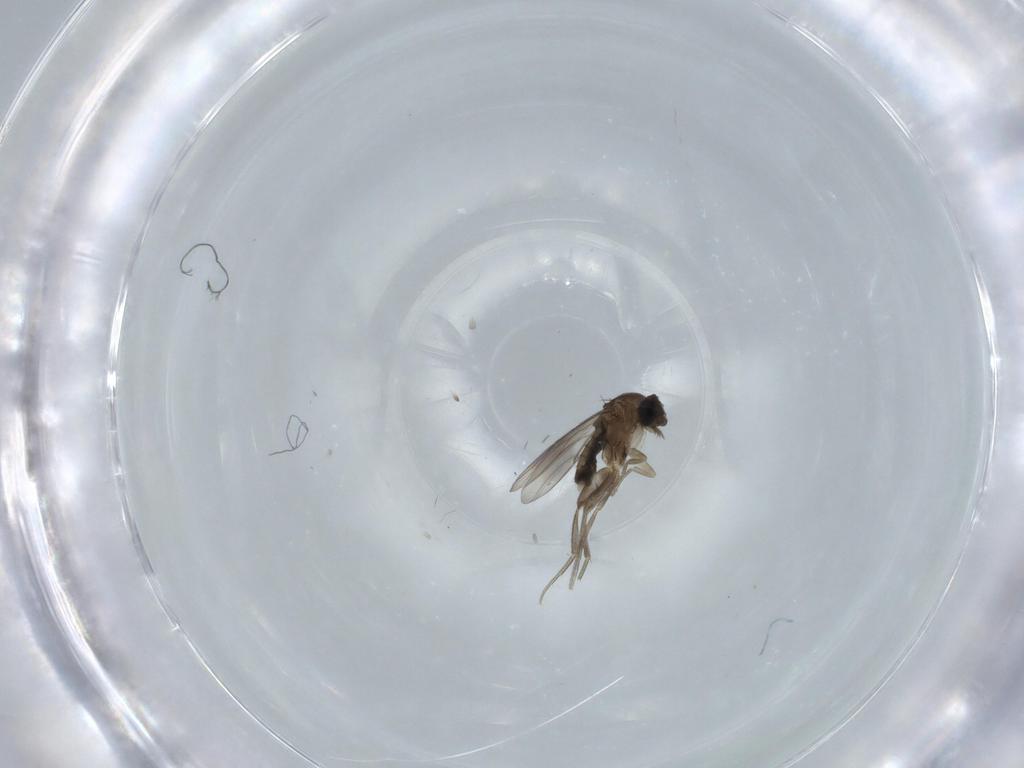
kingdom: Animalia
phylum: Arthropoda
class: Insecta
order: Diptera
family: Phoridae
